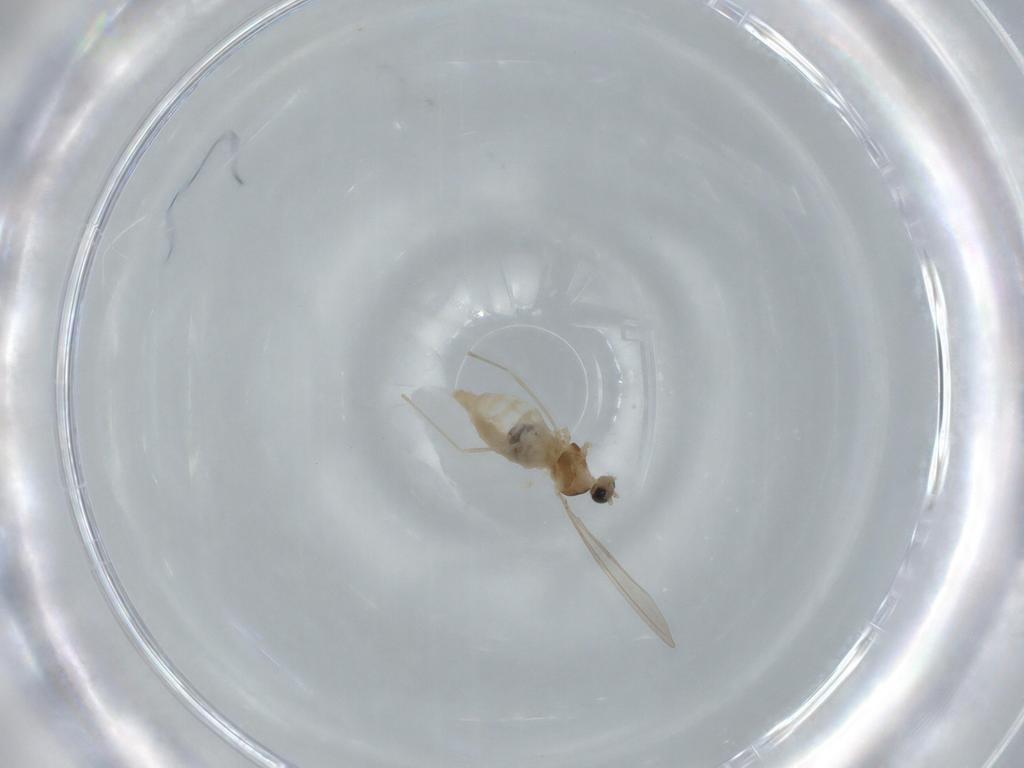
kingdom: Animalia
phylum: Arthropoda
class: Insecta
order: Diptera
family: Cecidomyiidae
